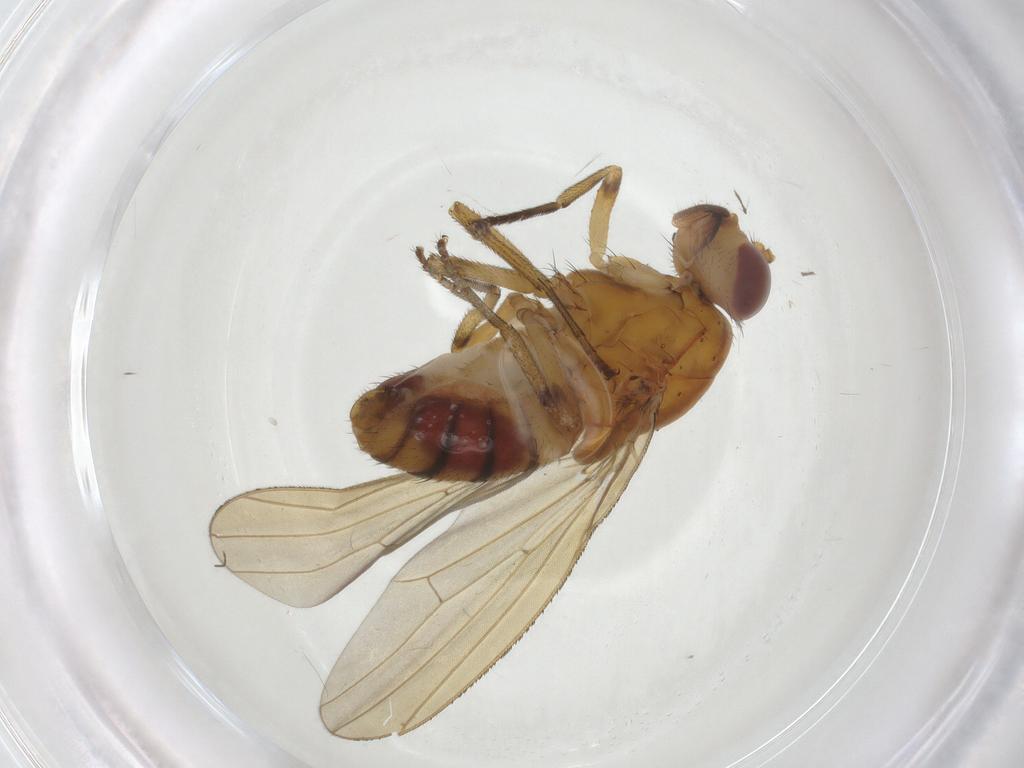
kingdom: Animalia
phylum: Arthropoda
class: Insecta
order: Diptera
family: Lauxaniidae
